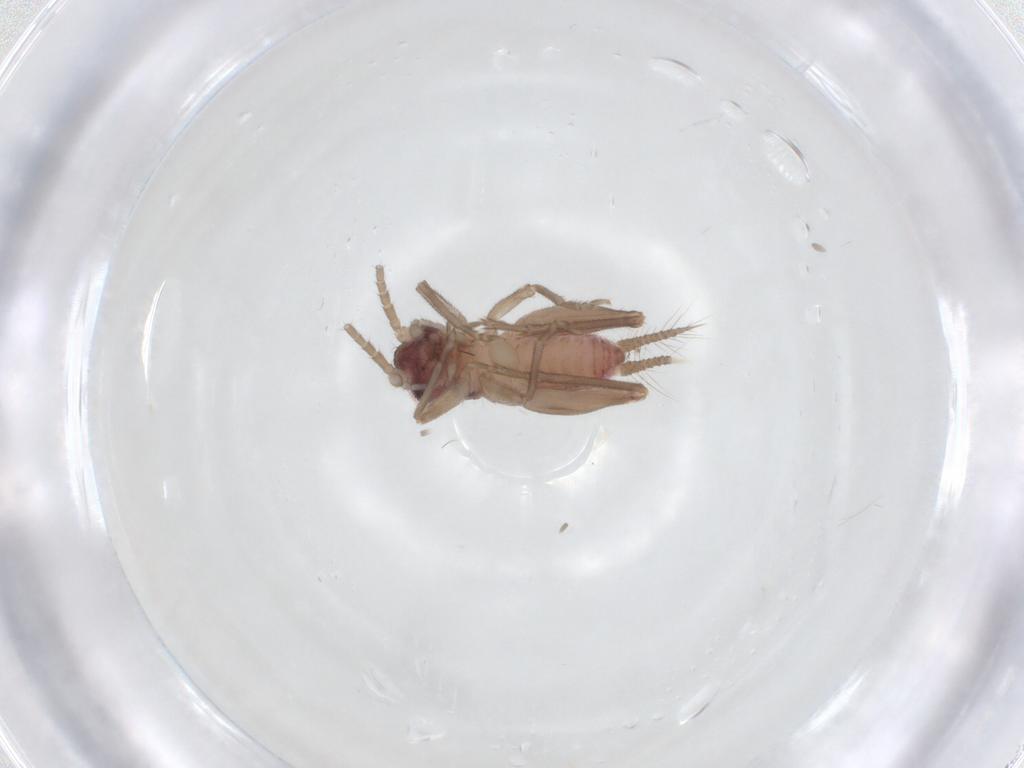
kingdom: Animalia
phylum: Arthropoda
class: Insecta
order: Orthoptera
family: Trigonidiidae
